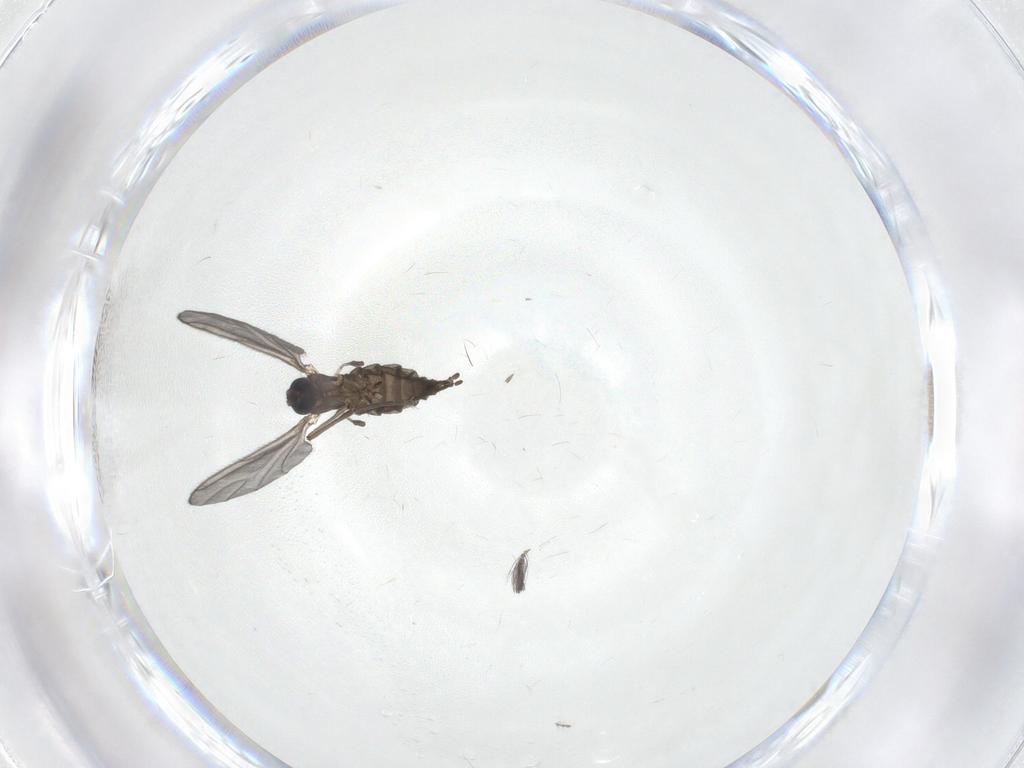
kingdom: Animalia
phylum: Arthropoda
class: Insecta
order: Diptera
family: Sciaridae
